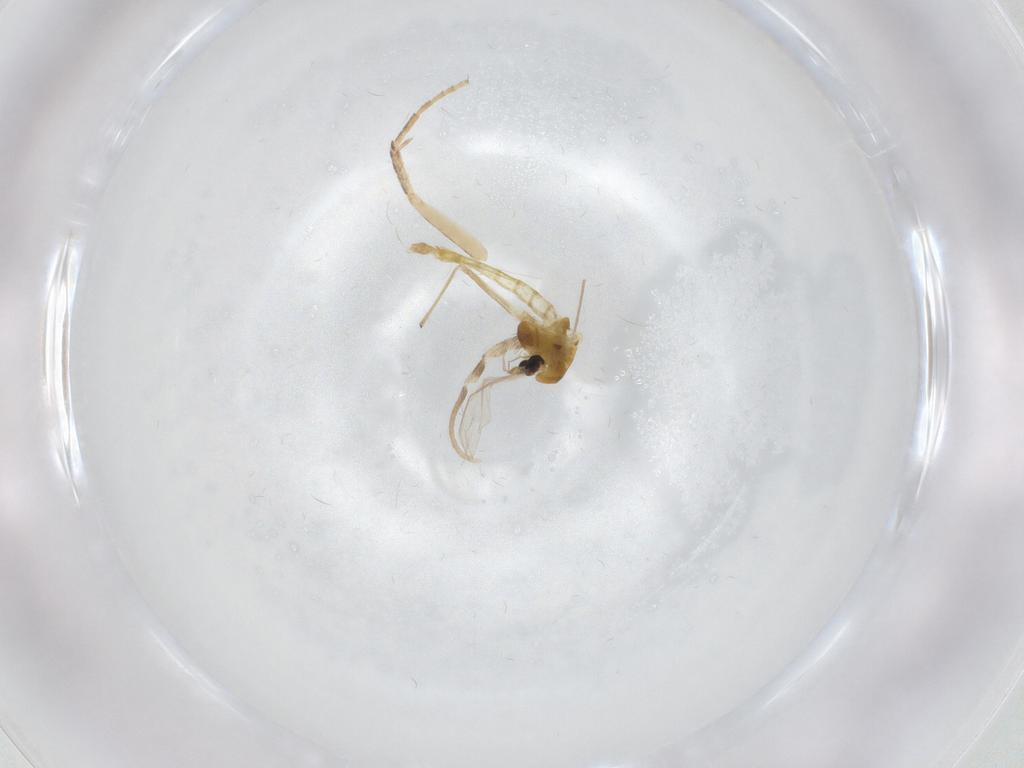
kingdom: Animalia
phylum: Arthropoda
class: Insecta
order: Diptera
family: Chironomidae
